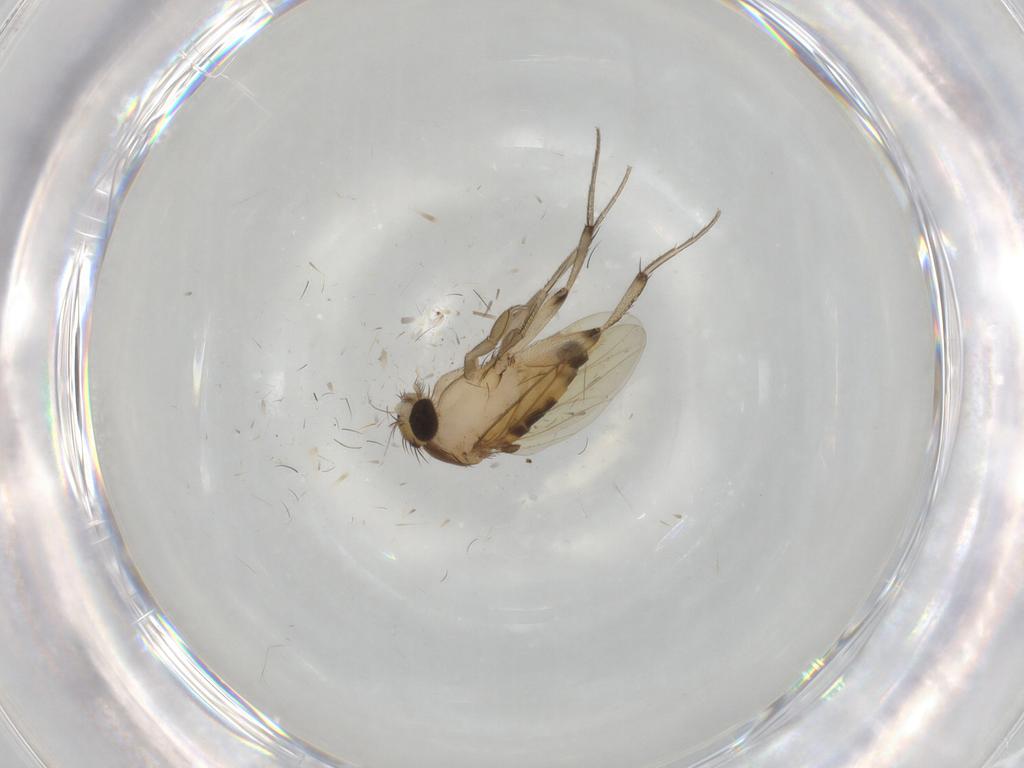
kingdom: Animalia
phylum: Arthropoda
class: Insecta
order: Diptera
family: Phoridae
